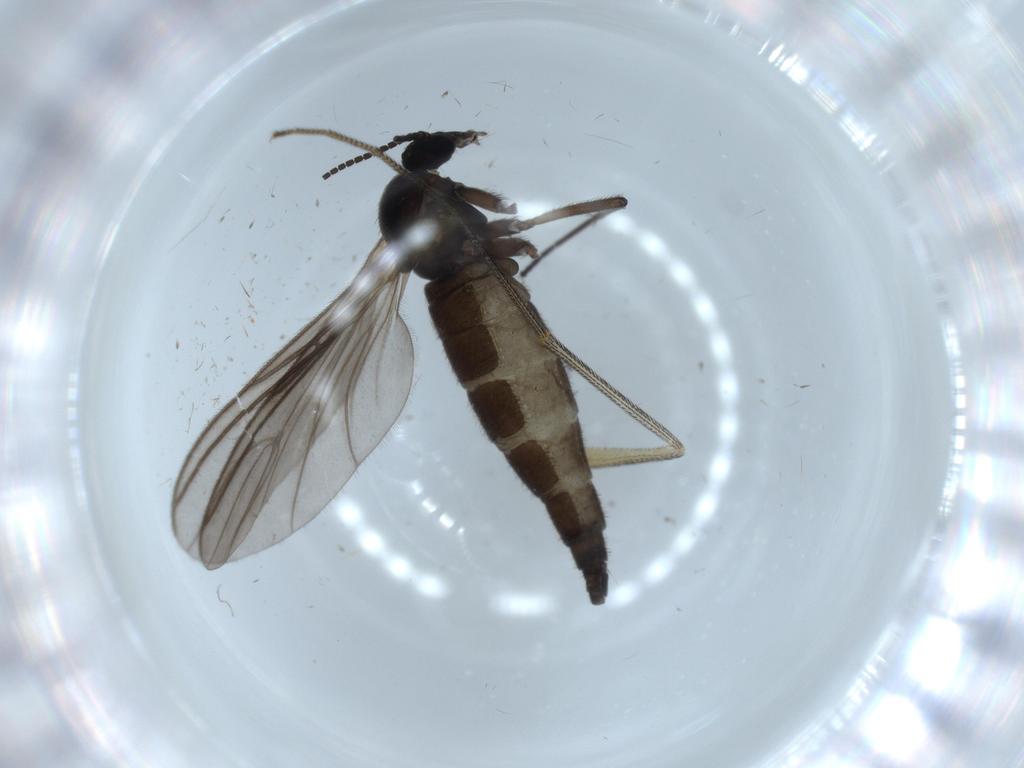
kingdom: Animalia
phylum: Arthropoda
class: Insecta
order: Diptera
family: Sciaridae
